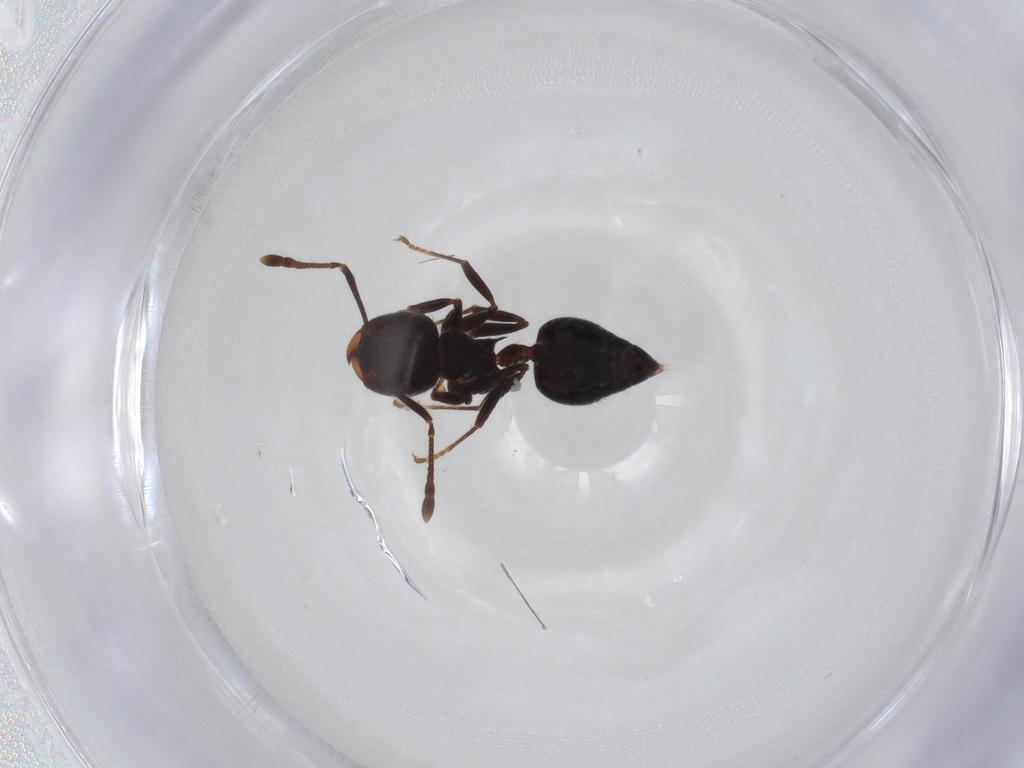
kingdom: Animalia
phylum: Arthropoda
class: Insecta
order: Hymenoptera
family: Formicidae
